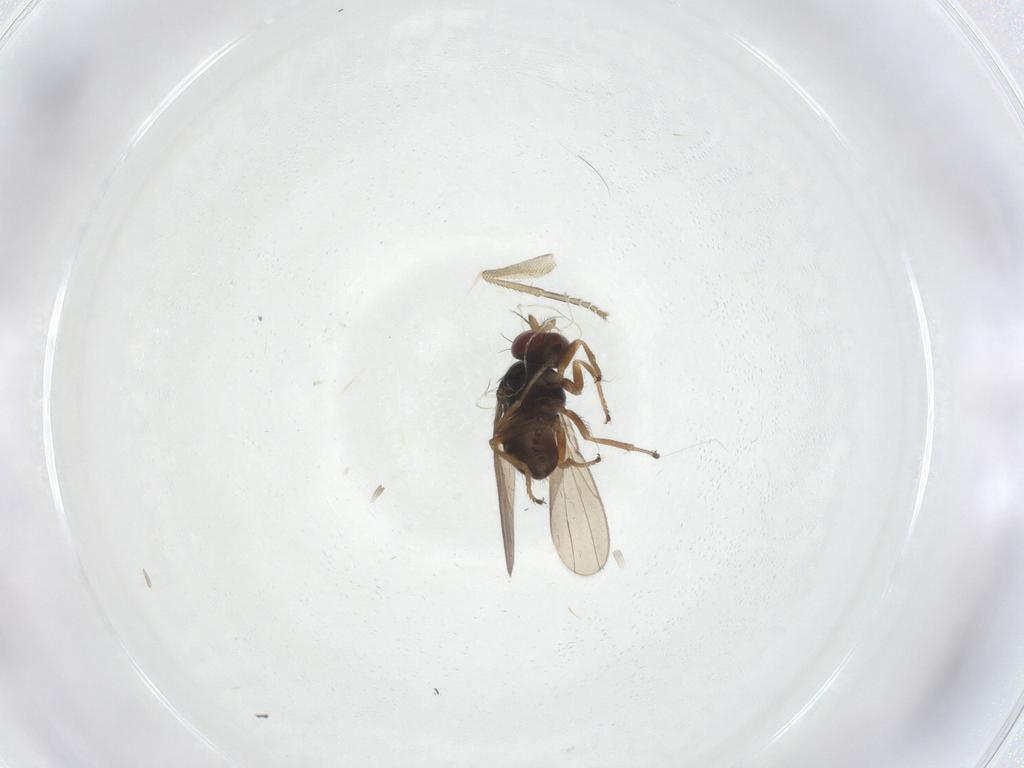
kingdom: Animalia
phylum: Arthropoda
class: Insecta
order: Diptera
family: Ephydridae
